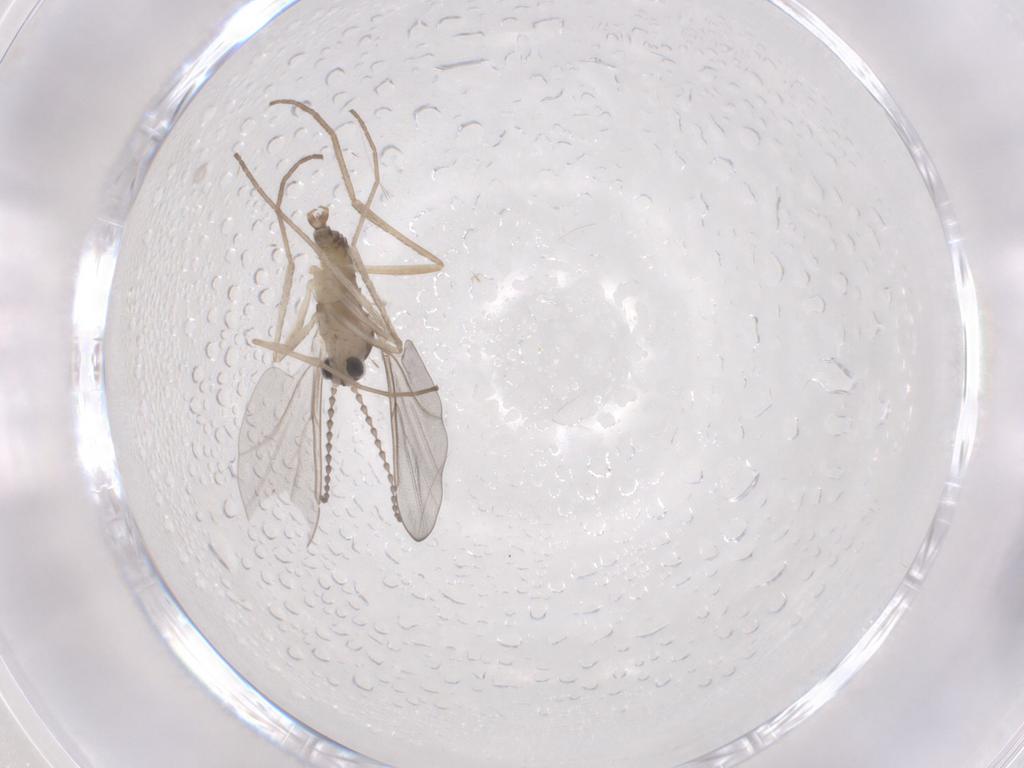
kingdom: Animalia
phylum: Arthropoda
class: Insecta
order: Diptera
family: Cecidomyiidae
